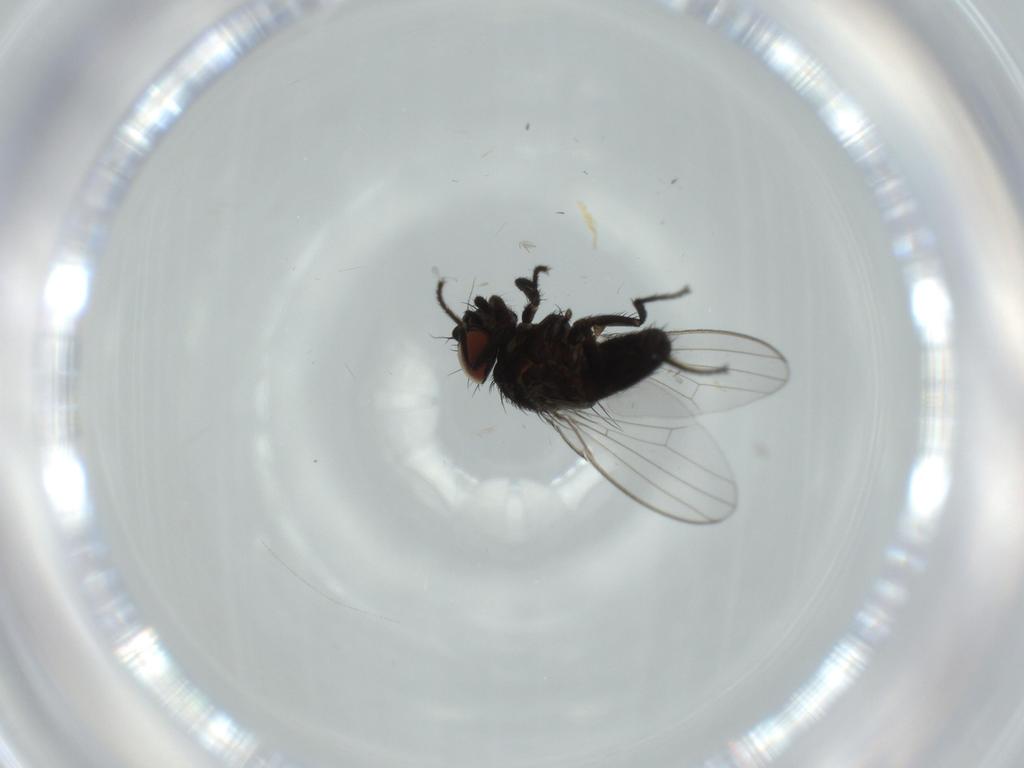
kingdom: Animalia
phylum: Arthropoda
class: Insecta
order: Diptera
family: Milichiidae
